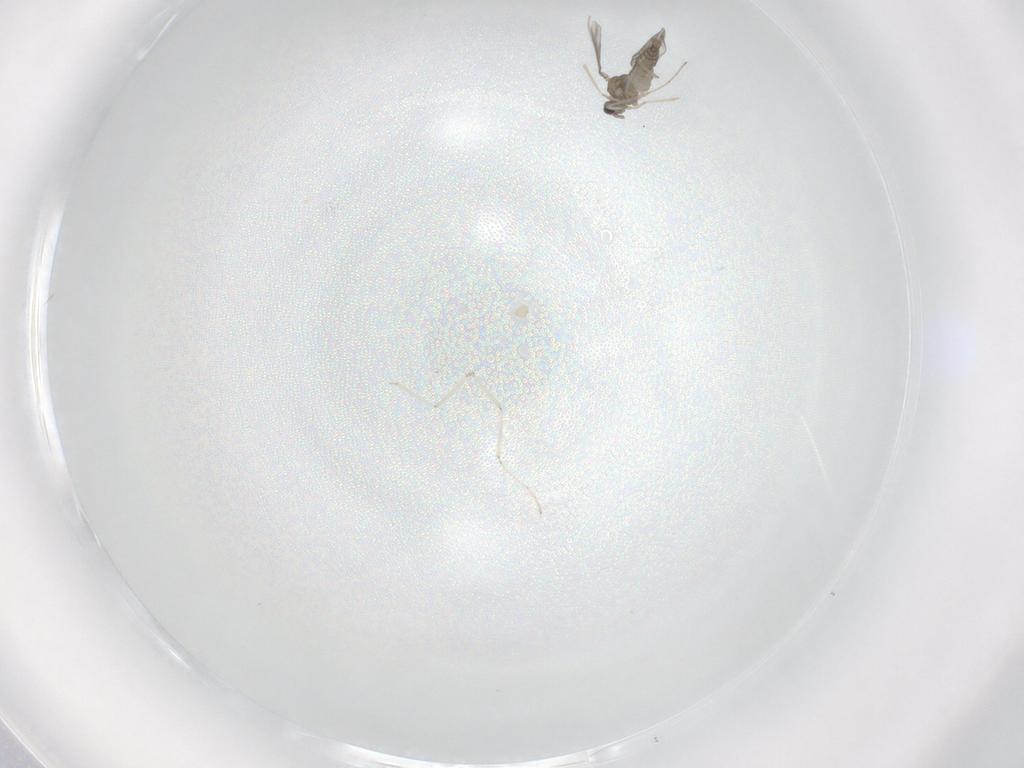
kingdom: Animalia
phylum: Arthropoda
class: Insecta
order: Diptera
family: Cecidomyiidae
